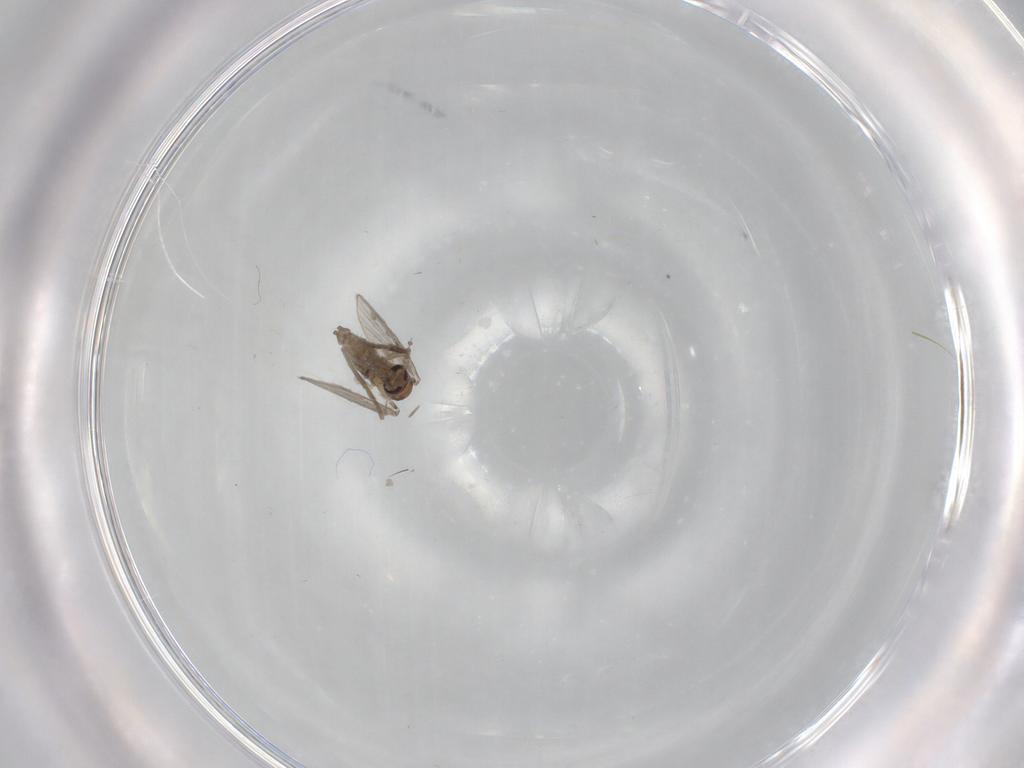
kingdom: Animalia
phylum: Arthropoda
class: Insecta
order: Diptera
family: Psychodidae
